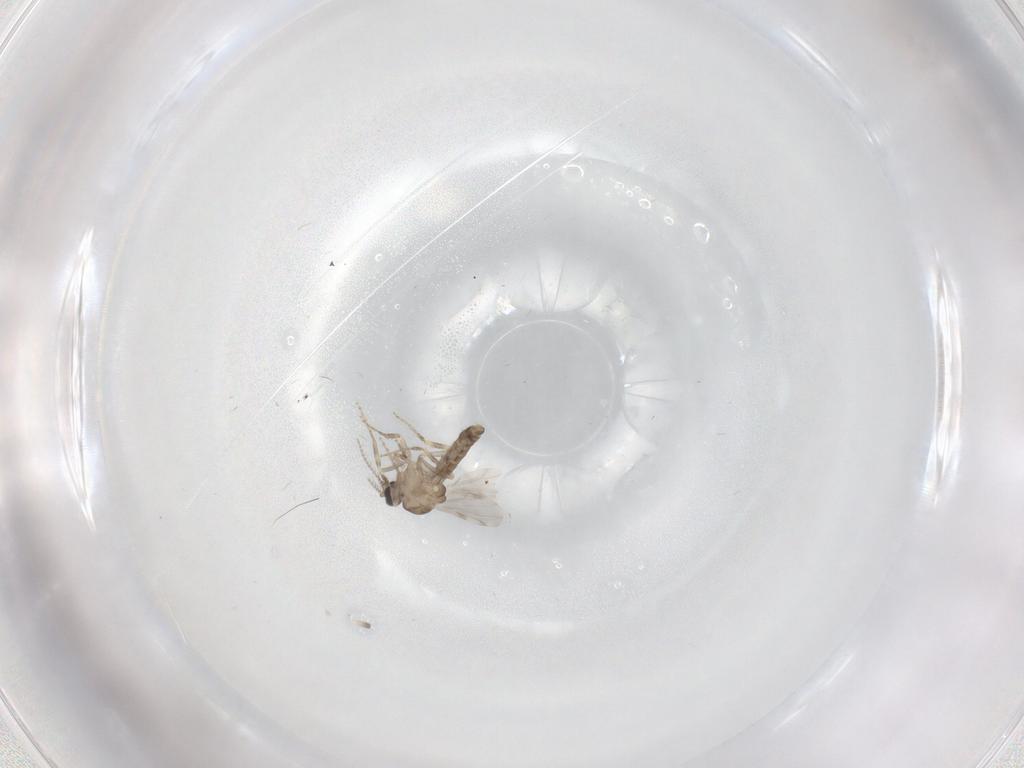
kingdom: Animalia
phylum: Arthropoda
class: Insecta
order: Diptera
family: Ceratopogonidae
